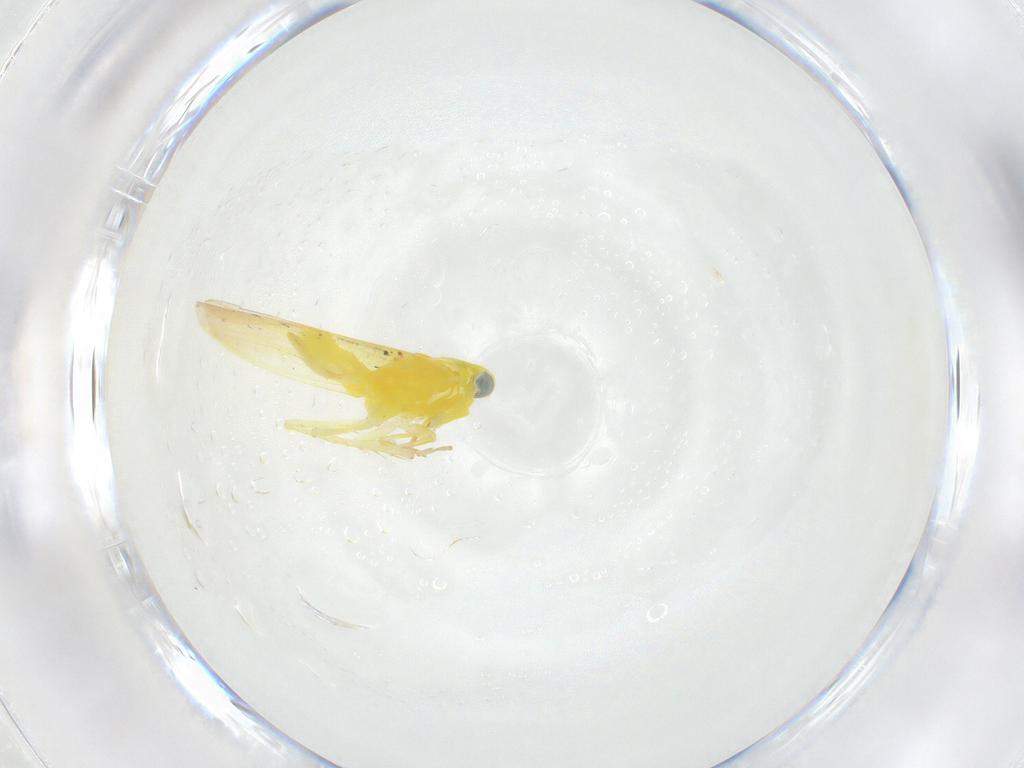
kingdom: Animalia
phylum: Arthropoda
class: Insecta
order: Hemiptera
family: Cicadellidae
